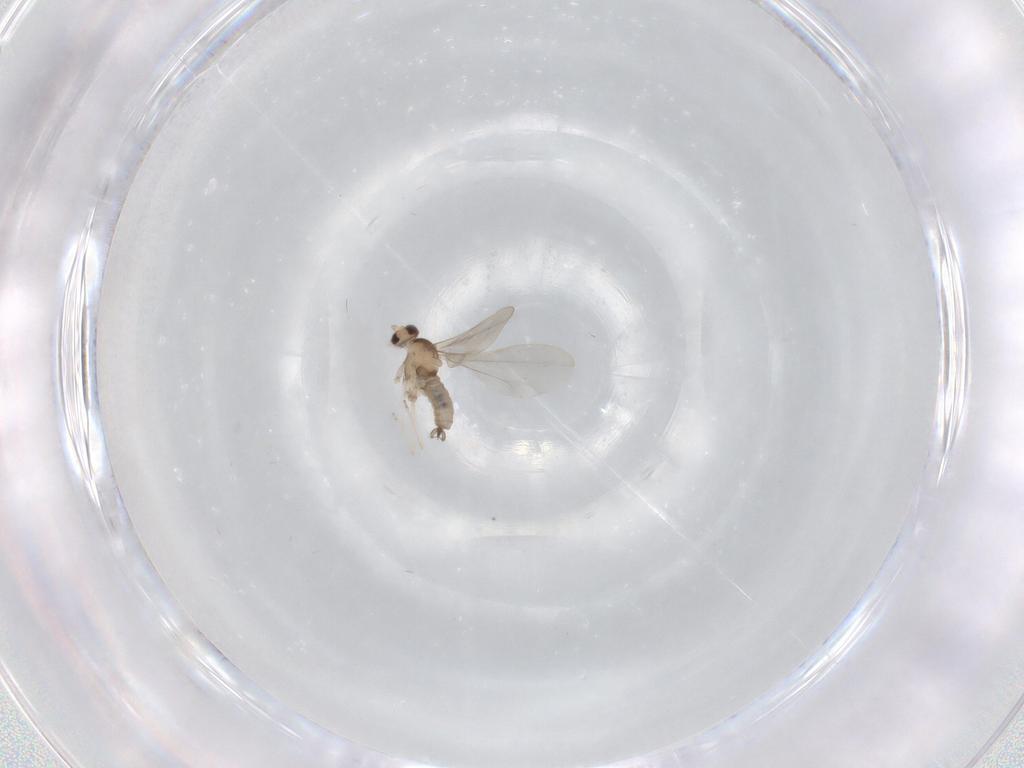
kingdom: Animalia
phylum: Arthropoda
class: Insecta
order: Diptera
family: Cecidomyiidae
